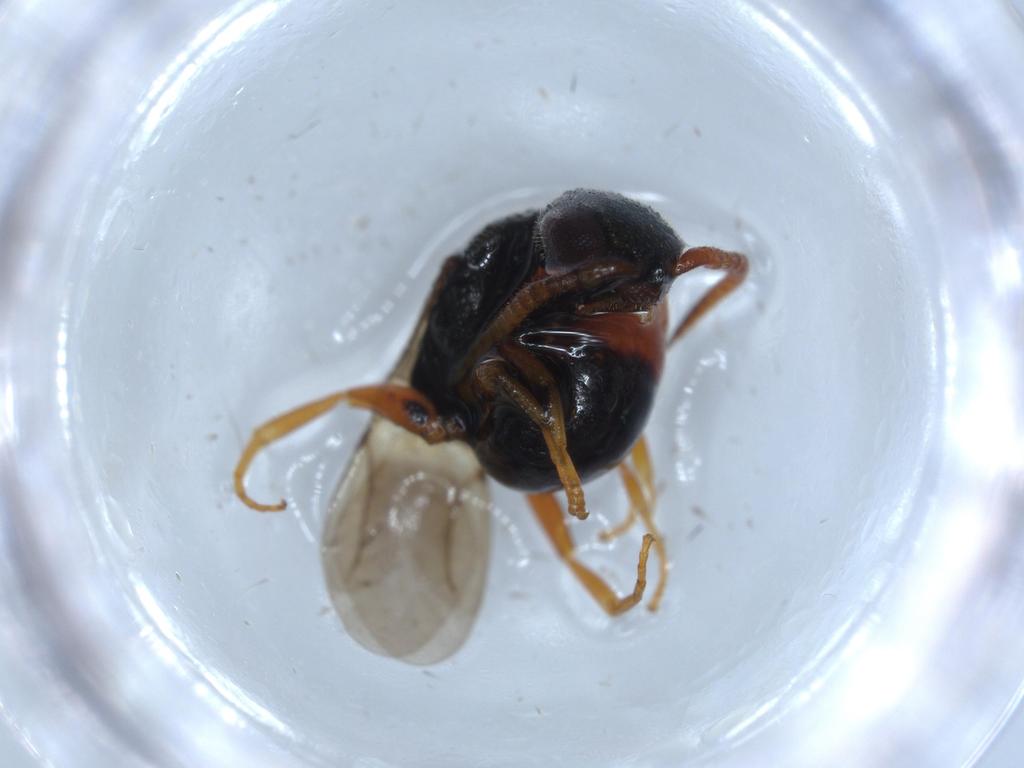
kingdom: Animalia
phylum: Arthropoda
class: Insecta
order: Hymenoptera
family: Bethylidae
